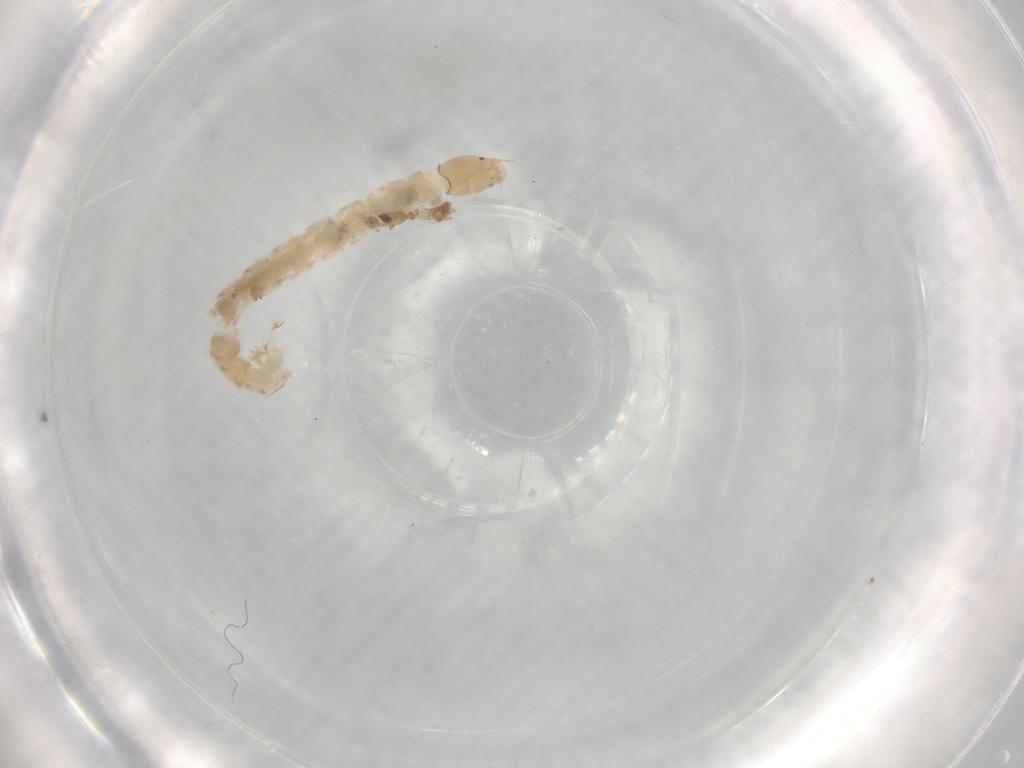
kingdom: Animalia
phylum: Arthropoda
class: Insecta
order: Diptera
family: Chironomidae
